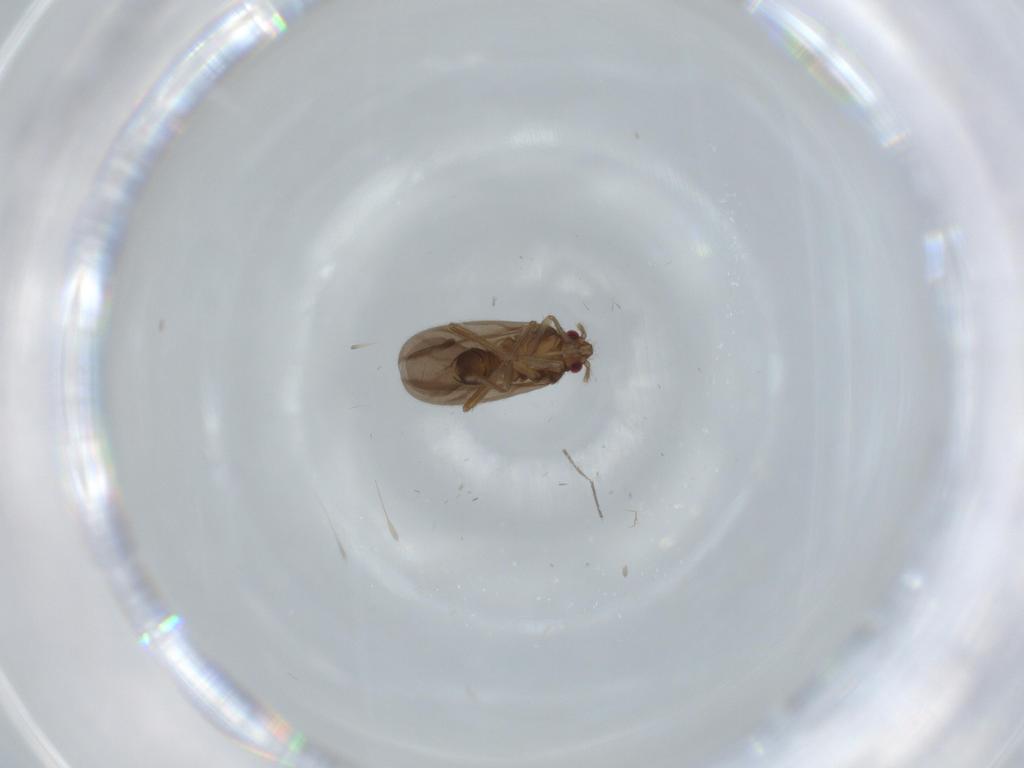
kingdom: Animalia
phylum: Arthropoda
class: Insecta
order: Hemiptera
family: Ceratocombidae
